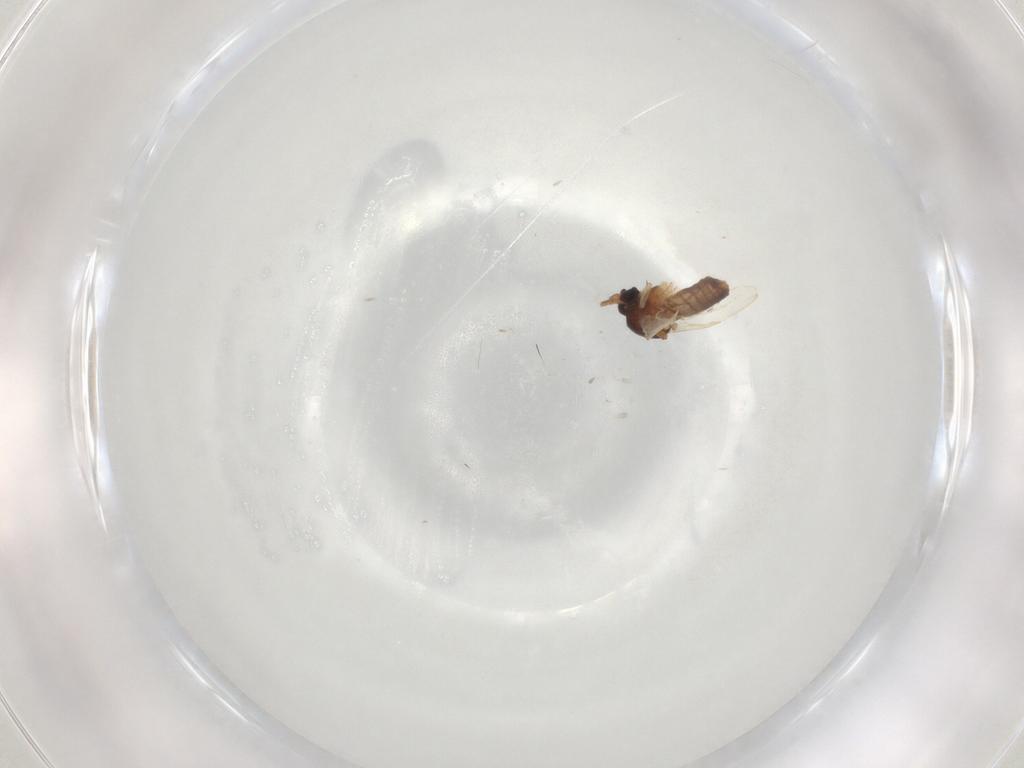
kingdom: Animalia
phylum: Arthropoda
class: Insecta
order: Diptera
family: Ceratopogonidae
